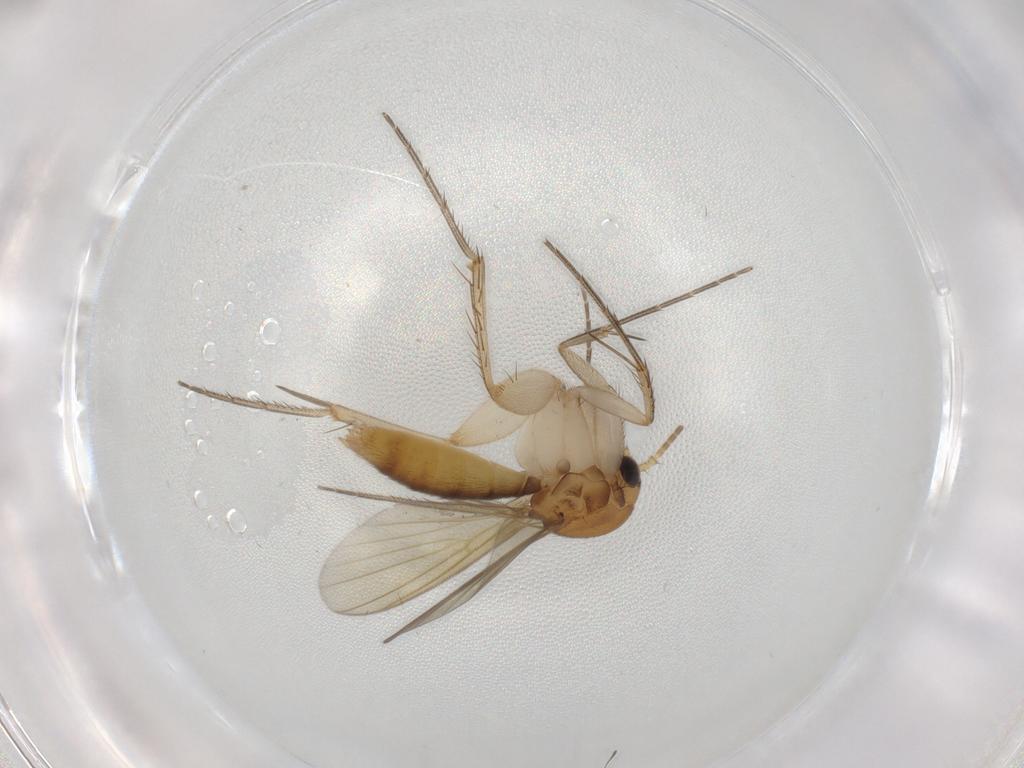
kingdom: Animalia
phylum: Arthropoda
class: Insecta
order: Diptera
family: Mycetophilidae
